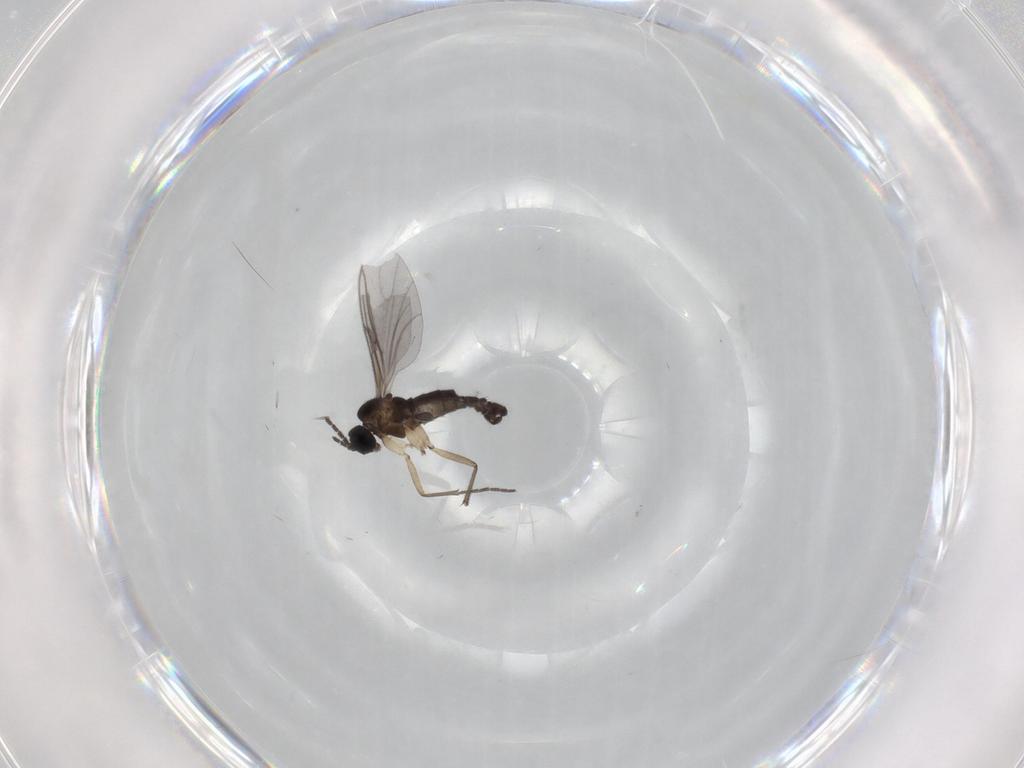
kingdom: Animalia
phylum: Arthropoda
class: Insecta
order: Diptera
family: Sciaridae
